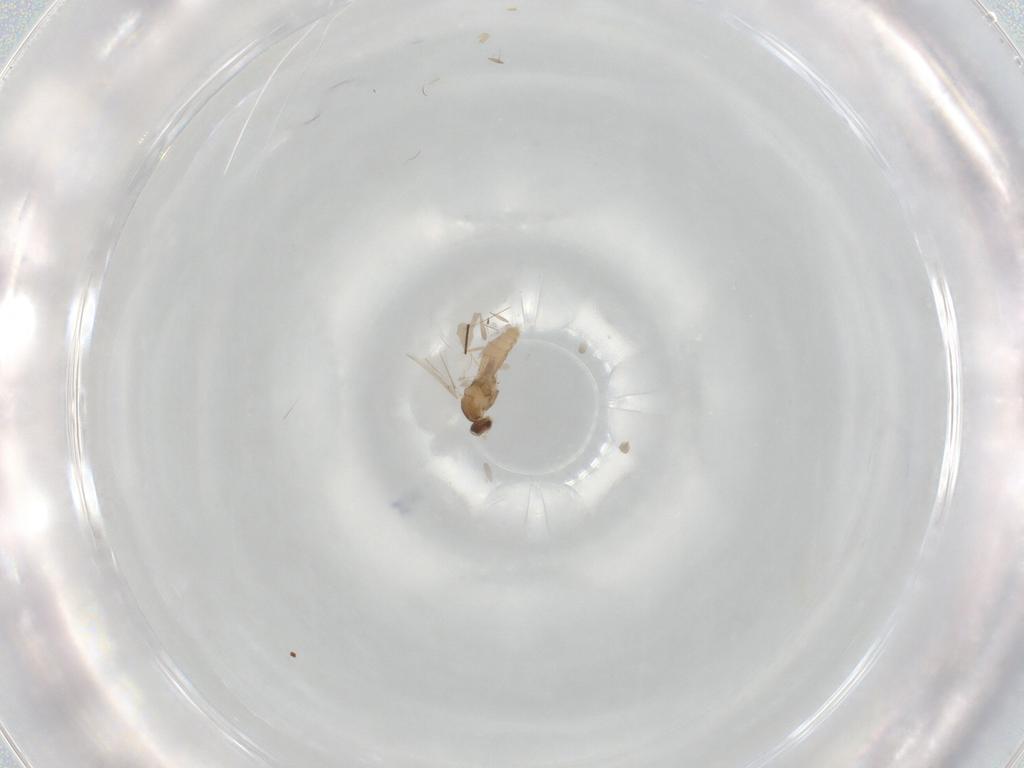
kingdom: Animalia
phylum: Arthropoda
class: Insecta
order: Diptera
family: Cecidomyiidae
